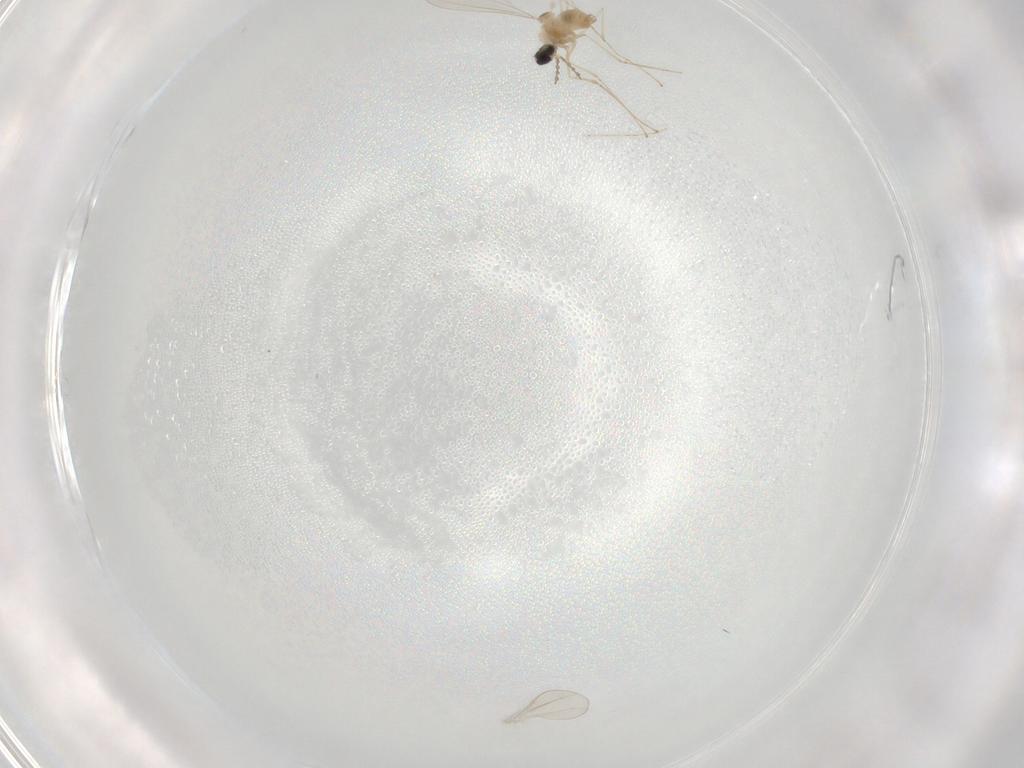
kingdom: Animalia
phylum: Arthropoda
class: Insecta
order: Diptera
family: Cecidomyiidae
